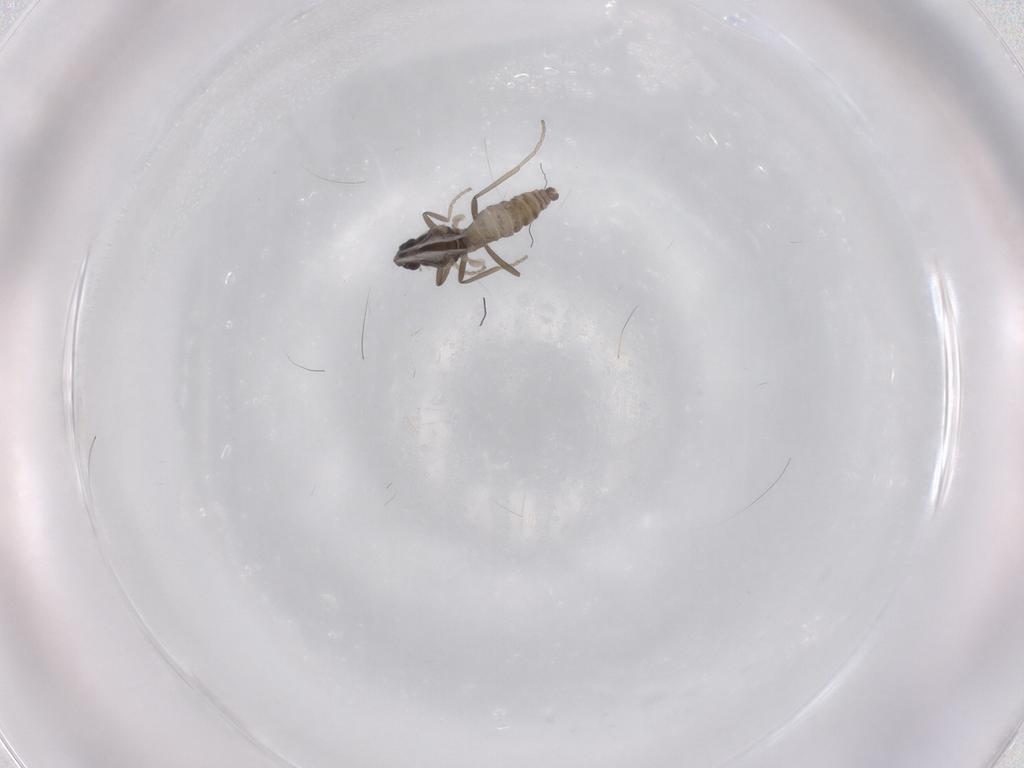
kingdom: Animalia
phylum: Arthropoda
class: Insecta
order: Diptera
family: Cecidomyiidae
